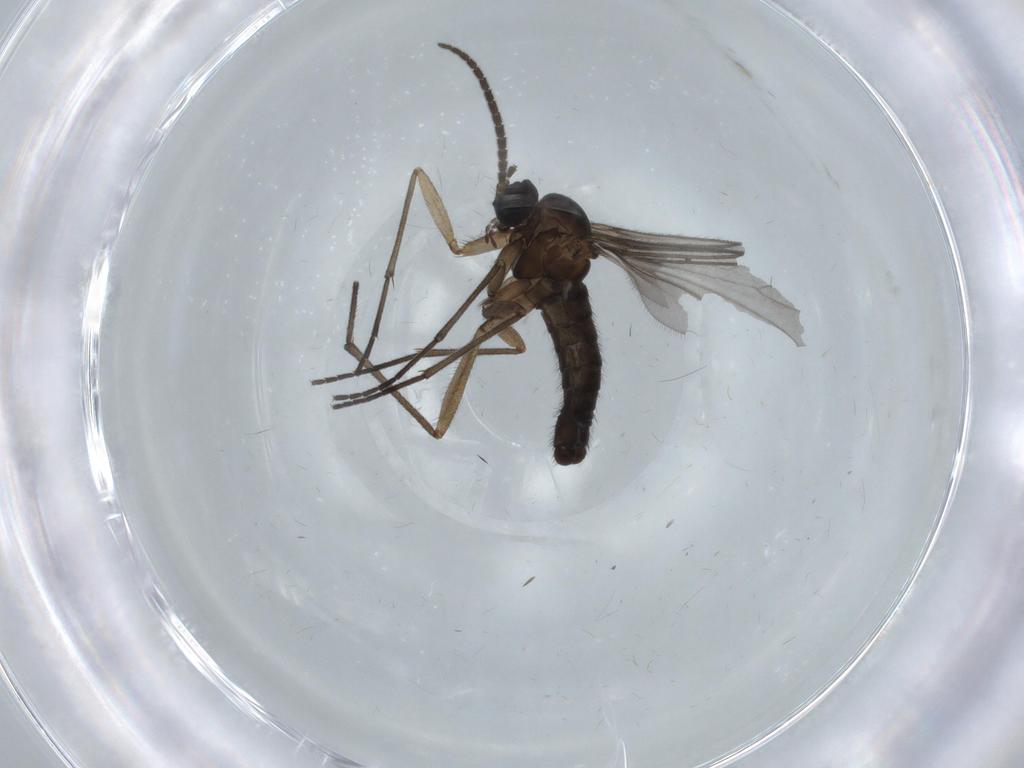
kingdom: Animalia
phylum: Arthropoda
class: Insecta
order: Diptera
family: Sciaridae
